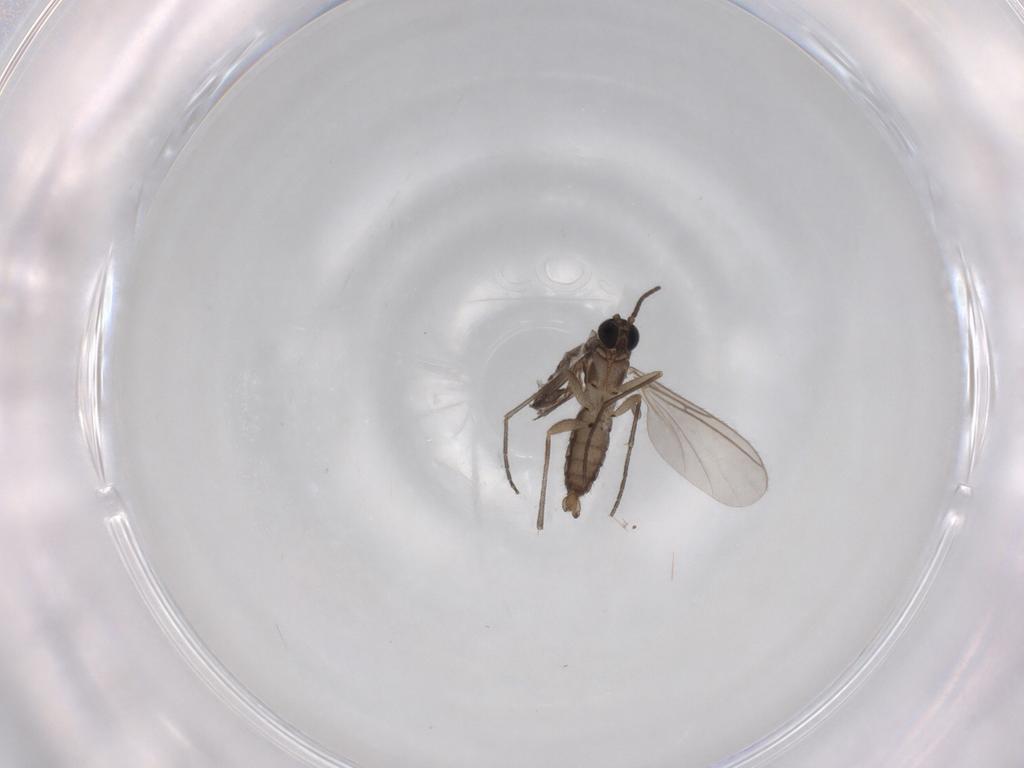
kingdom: Animalia
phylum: Arthropoda
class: Insecta
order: Diptera
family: Sciaridae
